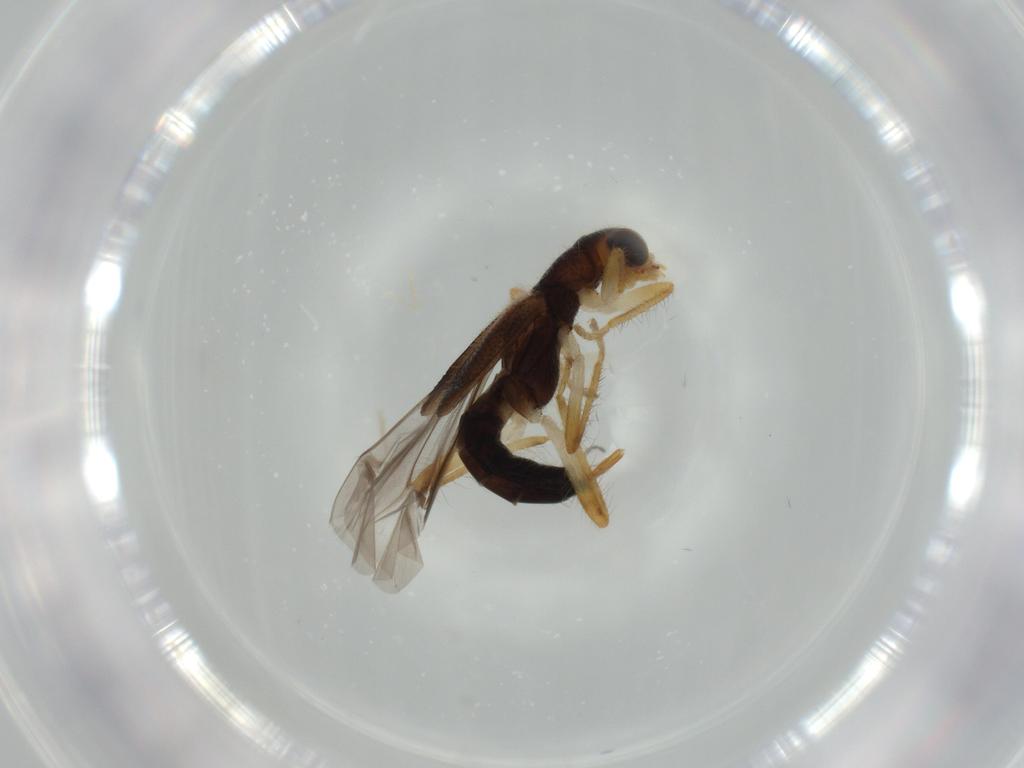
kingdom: Animalia
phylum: Arthropoda
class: Insecta
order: Coleoptera
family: Cleridae
